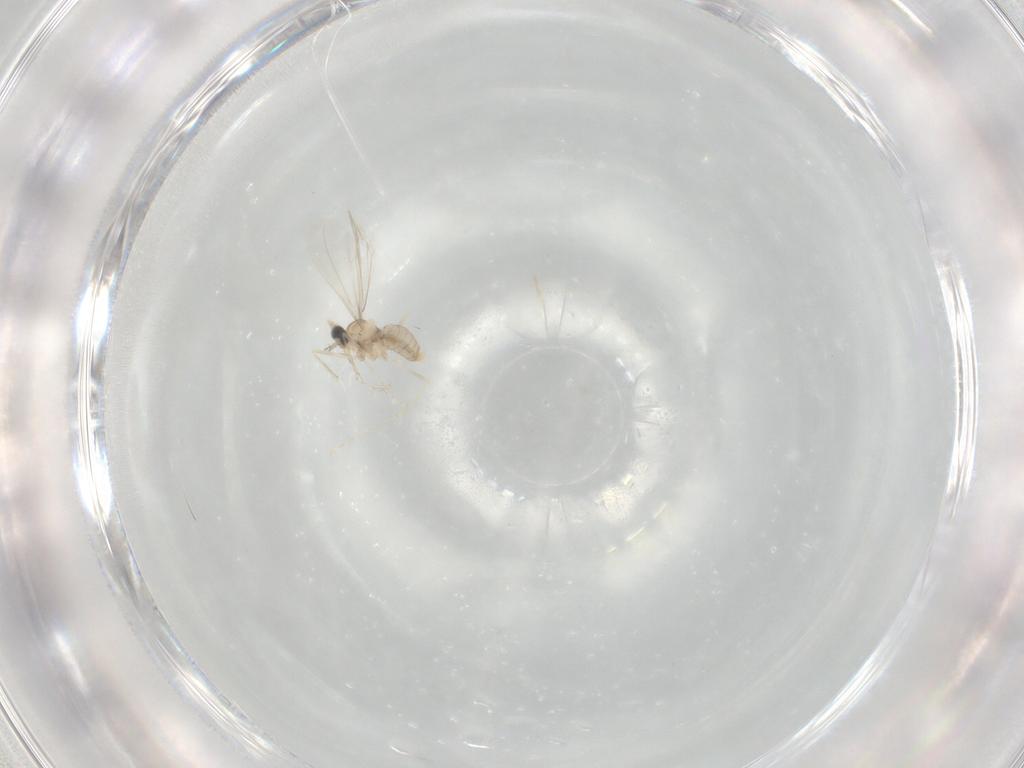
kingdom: Animalia
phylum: Arthropoda
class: Insecta
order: Diptera
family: Cecidomyiidae
